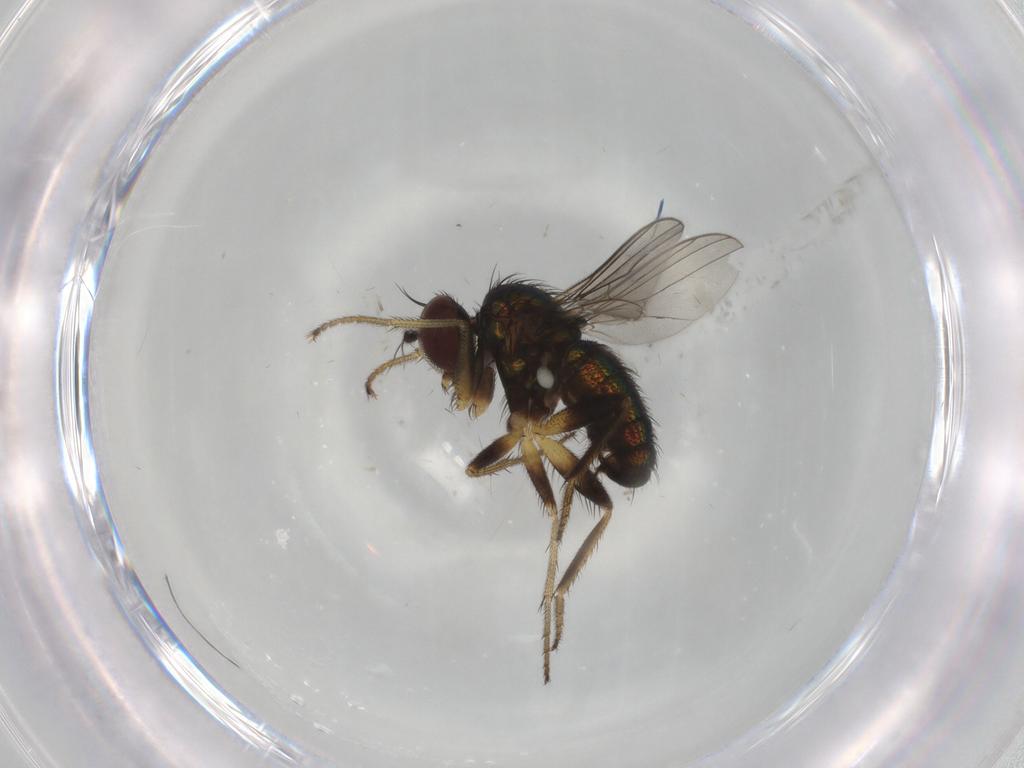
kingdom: Animalia
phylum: Arthropoda
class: Insecta
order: Diptera
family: Dolichopodidae
